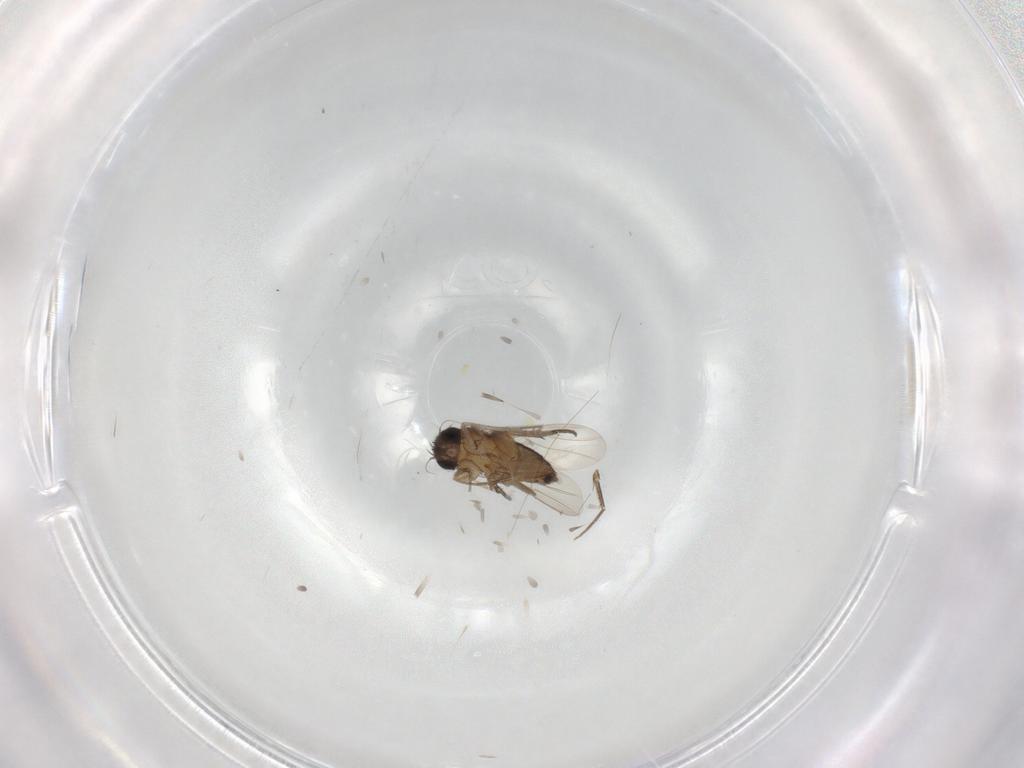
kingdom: Animalia
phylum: Arthropoda
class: Insecta
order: Diptera
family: Phoridae
